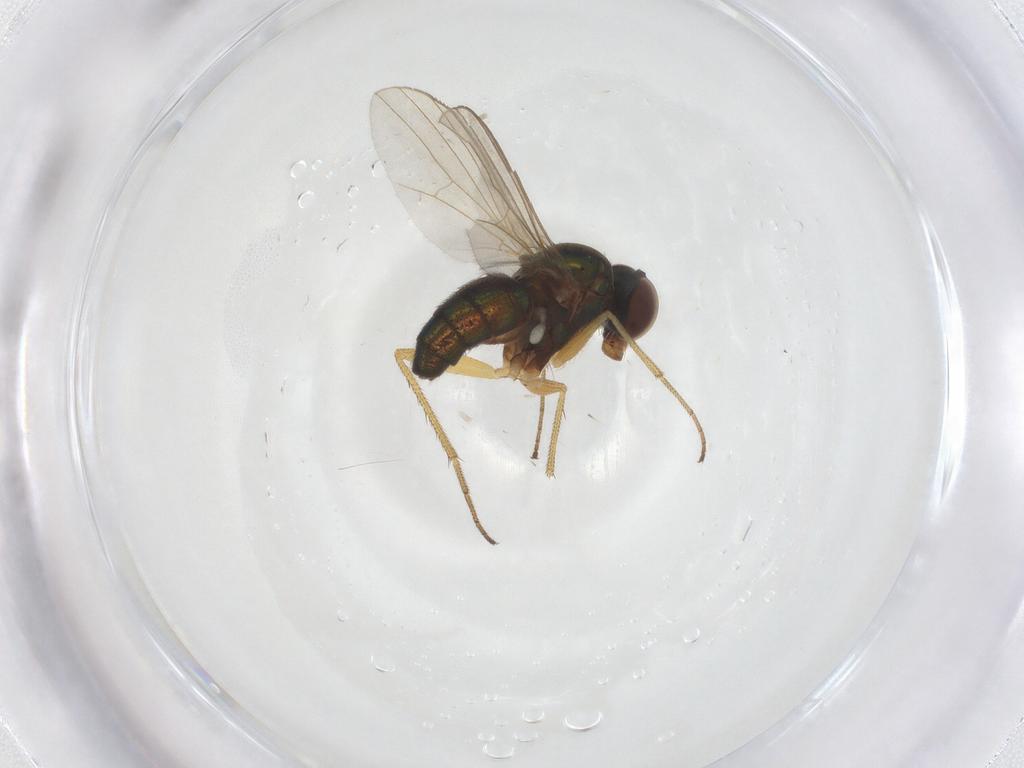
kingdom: Animalia
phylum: Arthropoda
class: Insecta
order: Diptera
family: Dolichopodidae
